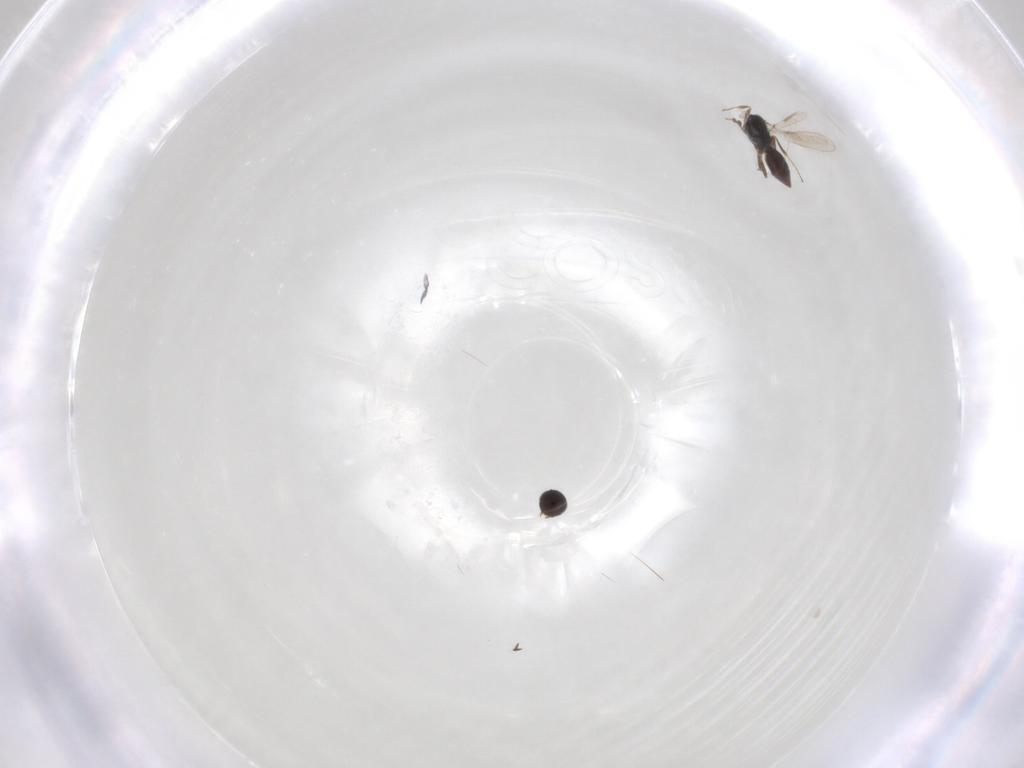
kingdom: Animalia
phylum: Arthropoda
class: Insecta
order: Hymenoptera
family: Scelionidae
